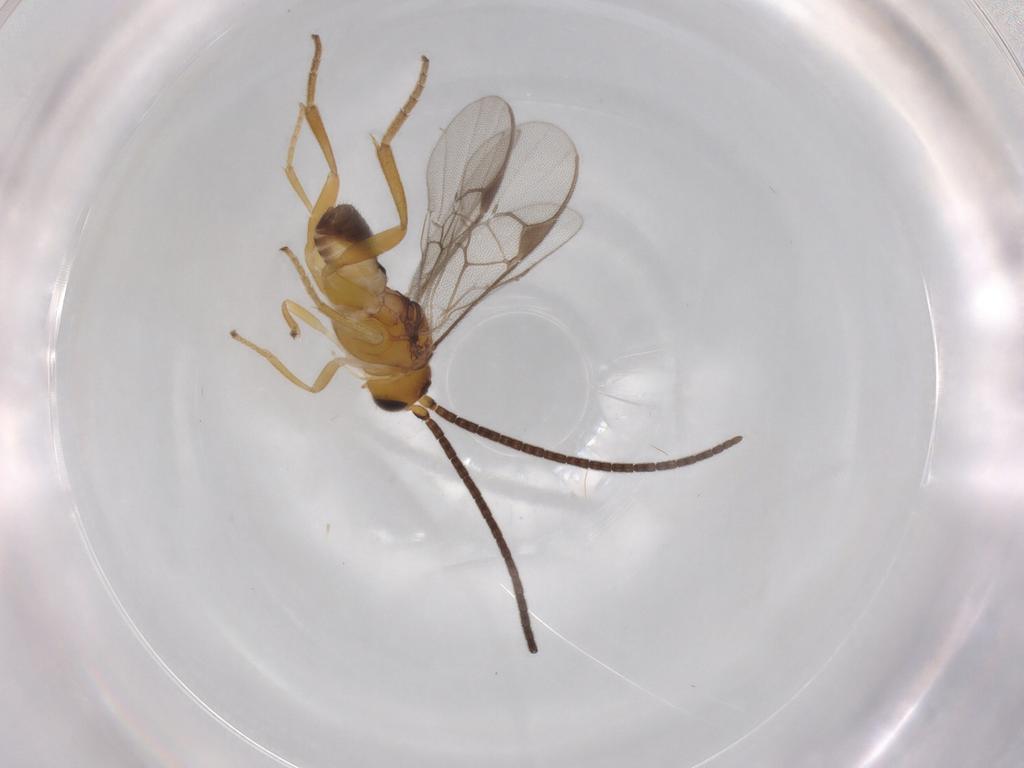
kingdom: Animalia
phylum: Arthropoda
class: Insecta
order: Hymenoptera
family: Braconidae
